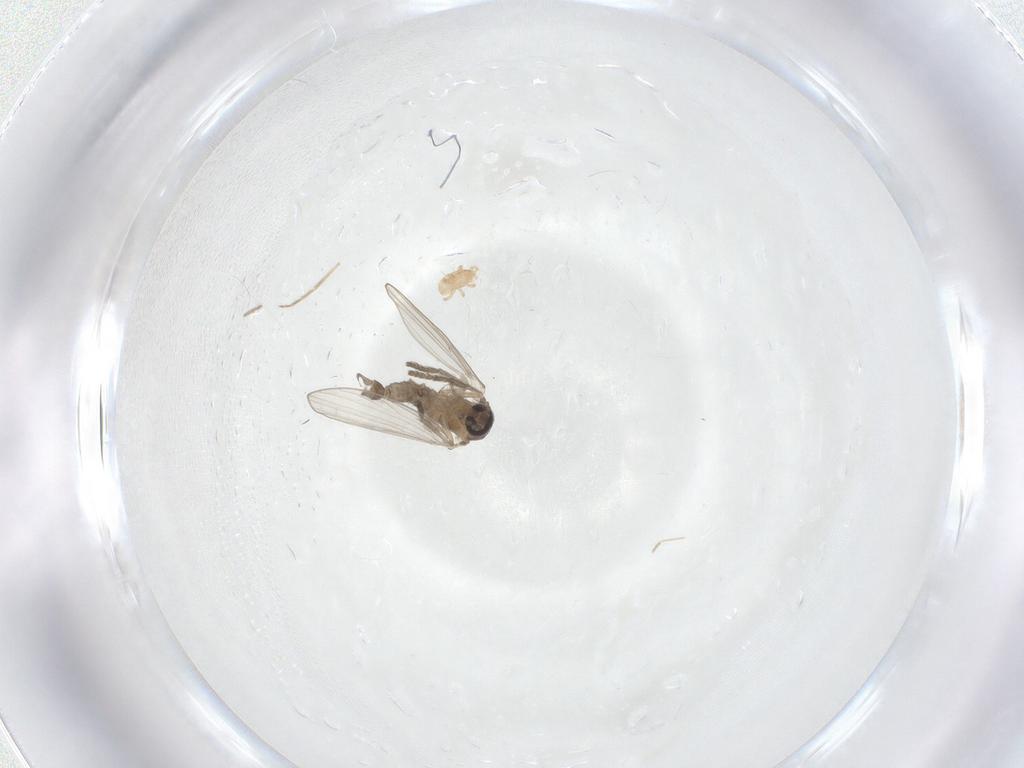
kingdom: Animalia
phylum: Arthropoda
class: Insecta
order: Diptera
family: Psychodidae
